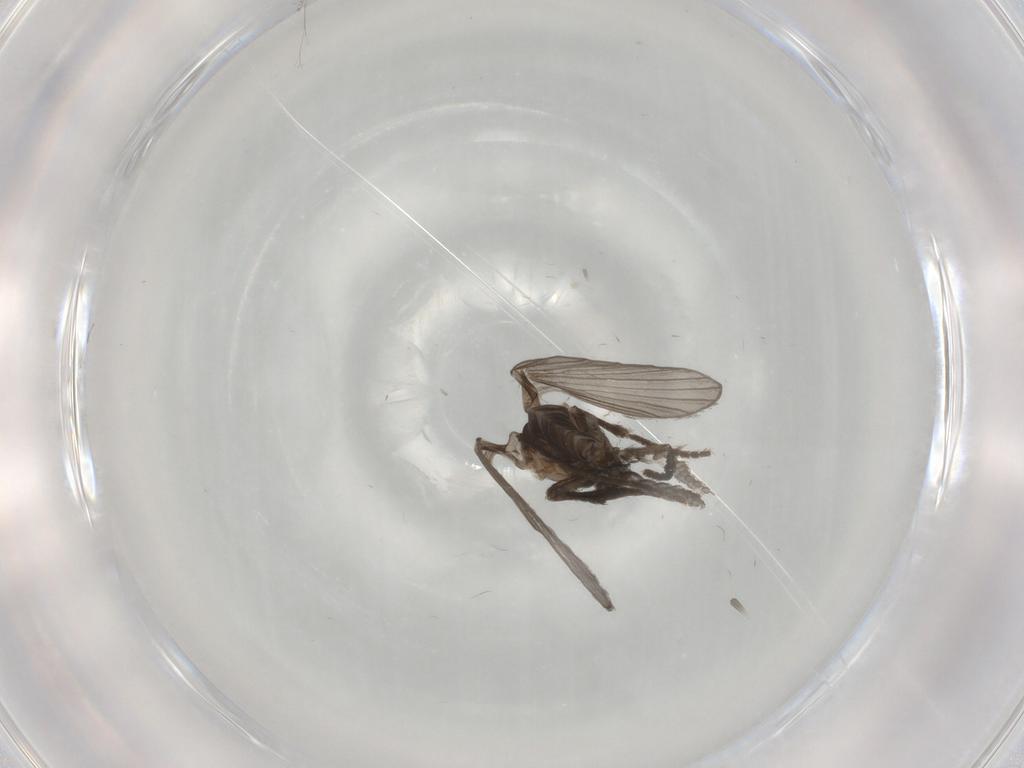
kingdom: Animalia
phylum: Arthropoda
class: Insecta
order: Diptera
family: Psychodidae
